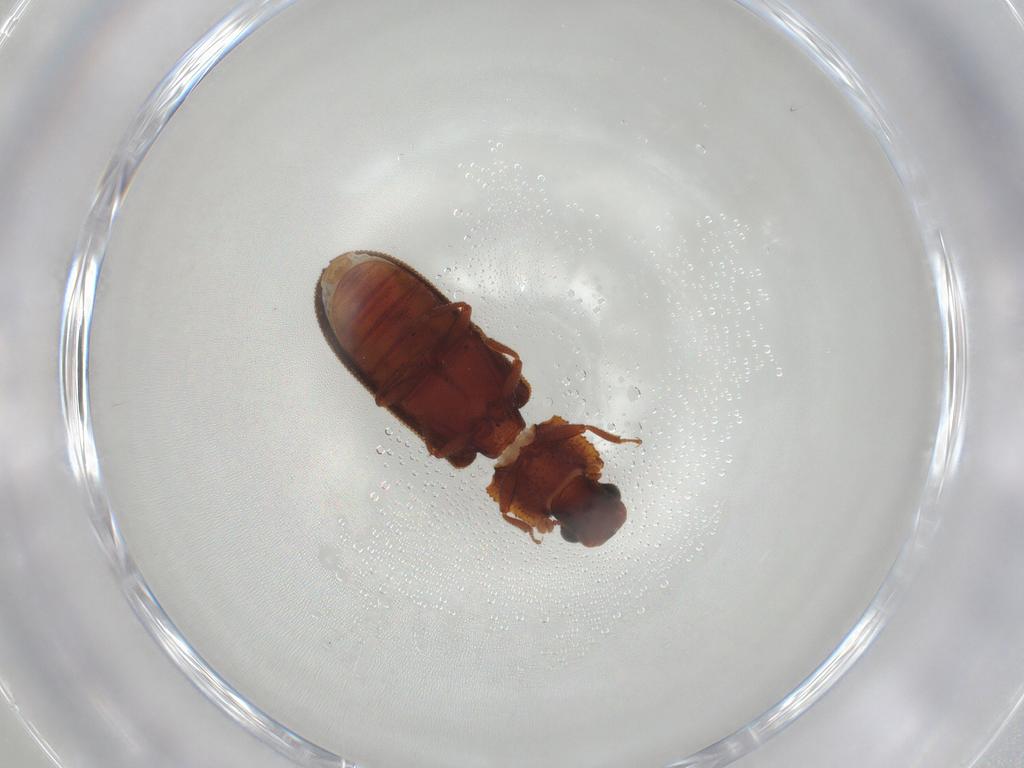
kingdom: Animalia
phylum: Arthropoda
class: Insecta
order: Coleoptera
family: Zopheridae
